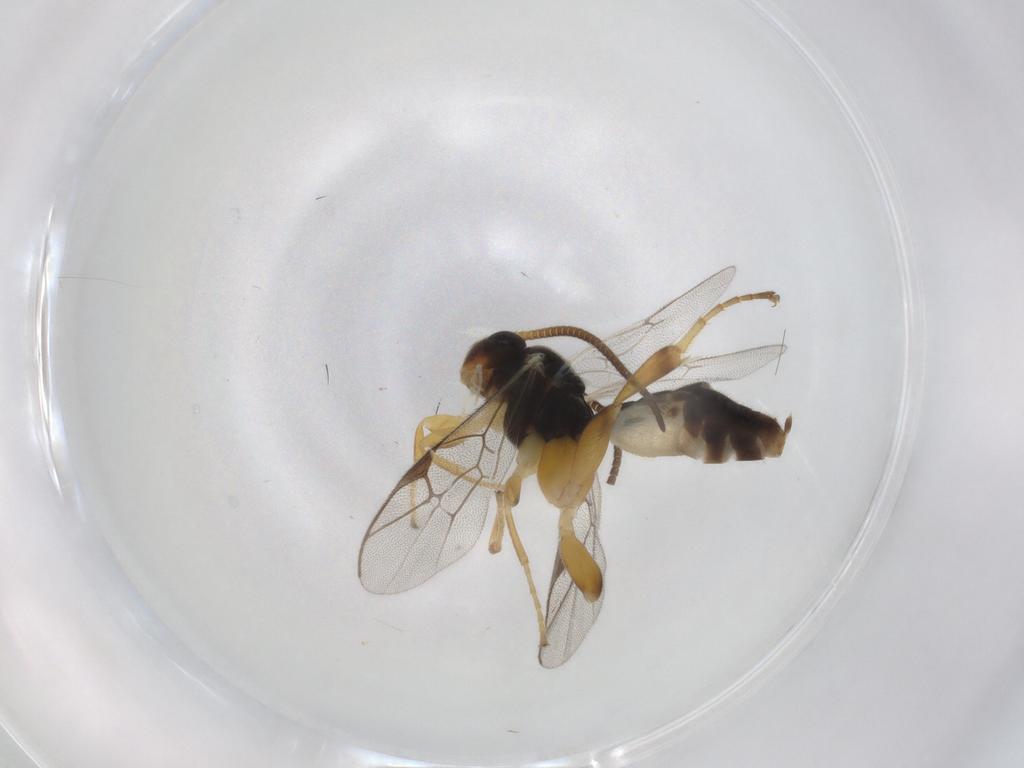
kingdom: Animalia
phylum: Arthropoda
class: Insecta
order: Hymenoptera
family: Ichneumonidae
